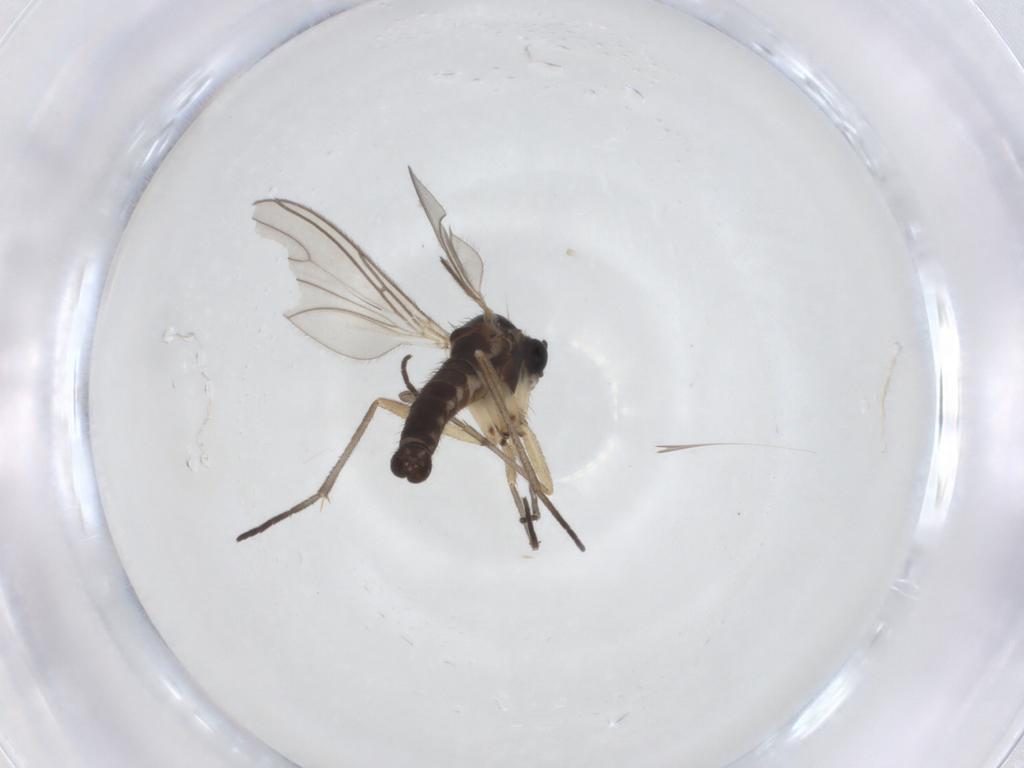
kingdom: Animalia
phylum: Arthropoda
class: Insecta
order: Diptera
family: Sciaridae
